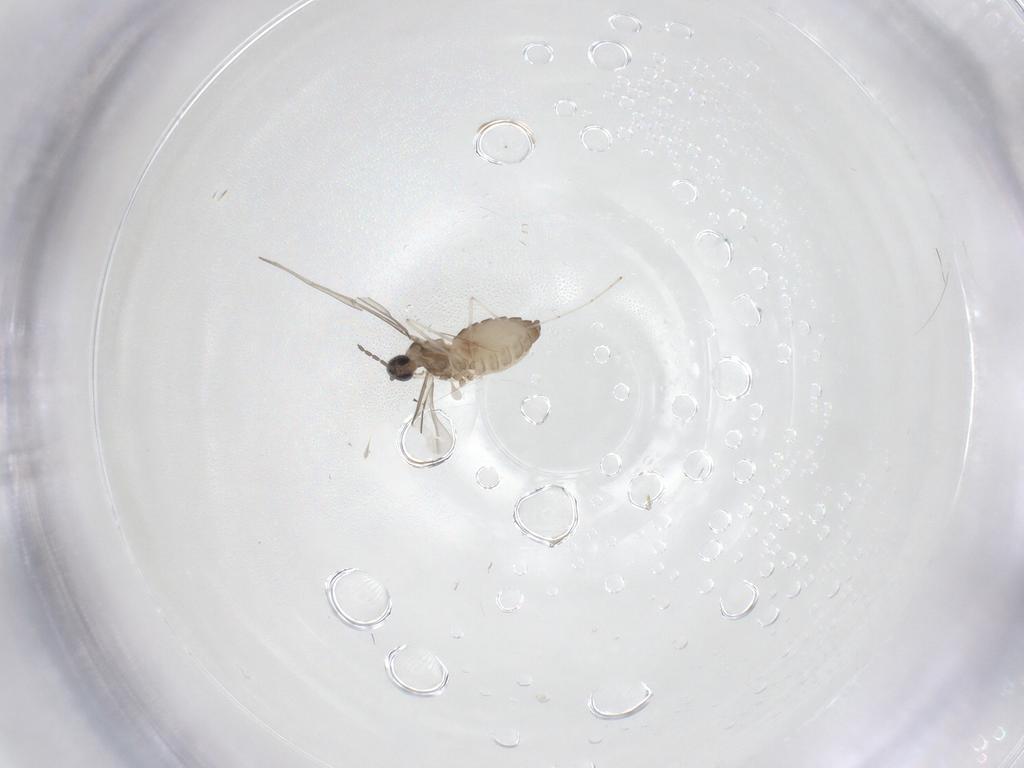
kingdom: Animalia
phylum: Arthropoda
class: Insecta
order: Diptera
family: Cecidomyiidae
